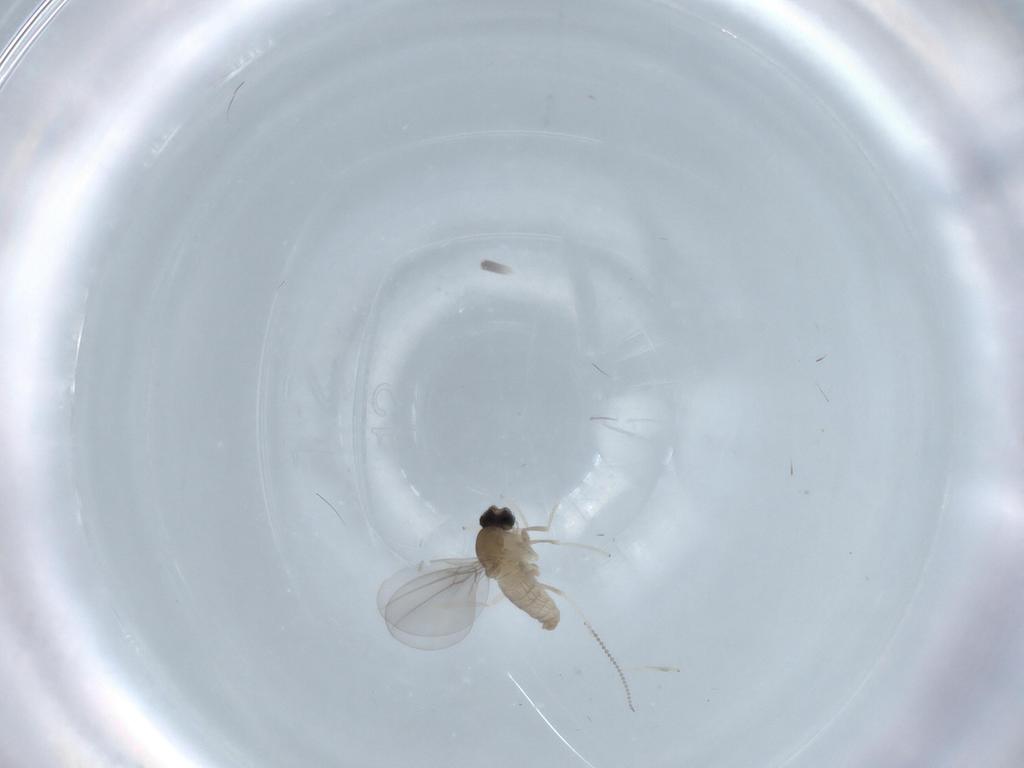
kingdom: Animalia
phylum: Arthropoda
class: Insecta
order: Diptera
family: Cecidomyiidae
